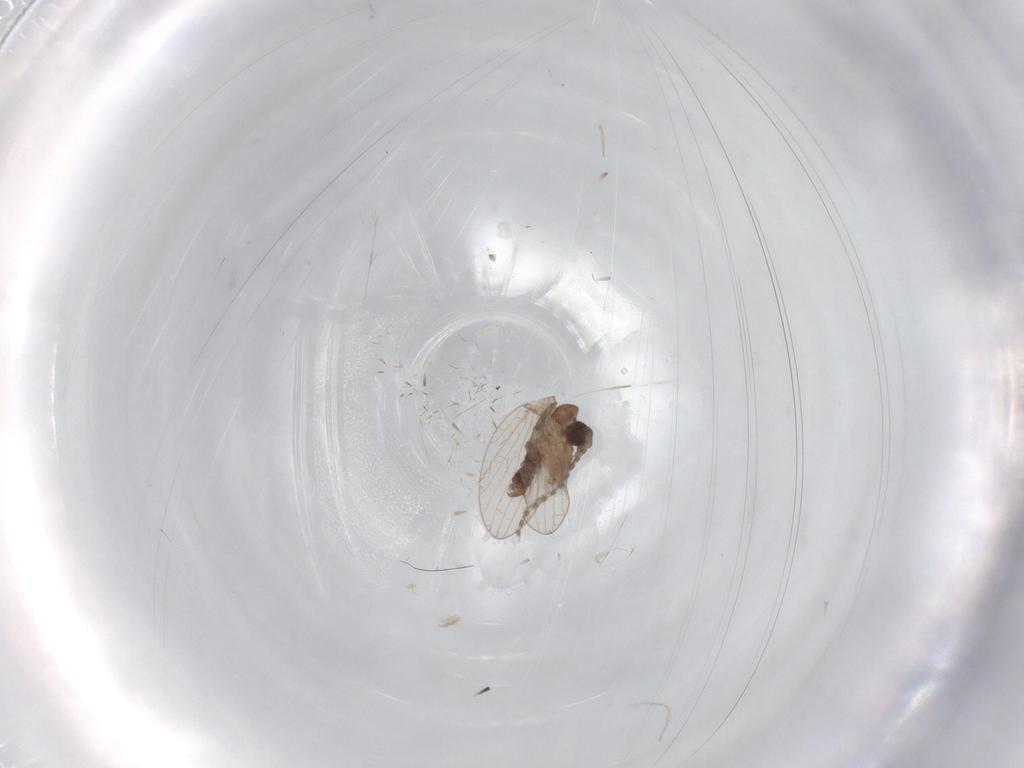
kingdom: Animalia
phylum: Arthropoda
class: Insecta
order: Diptera
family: Psychodidae
